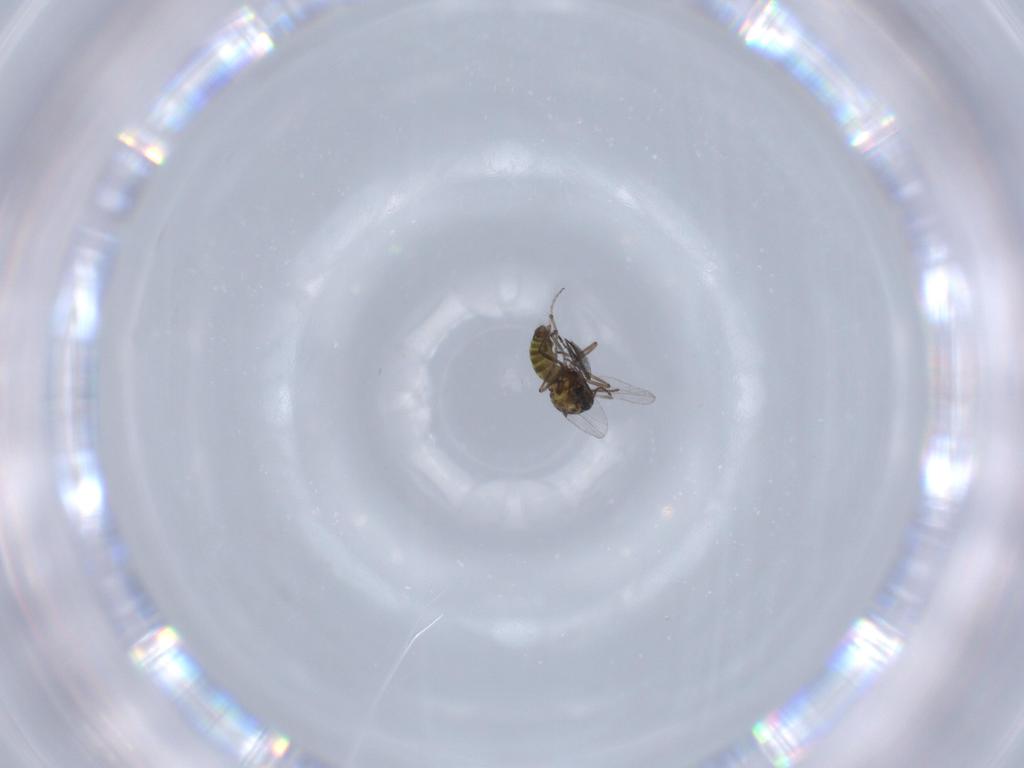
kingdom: Animalia
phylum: Arthropoda
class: Insecta
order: Diptera
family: Ceratopogonidae
